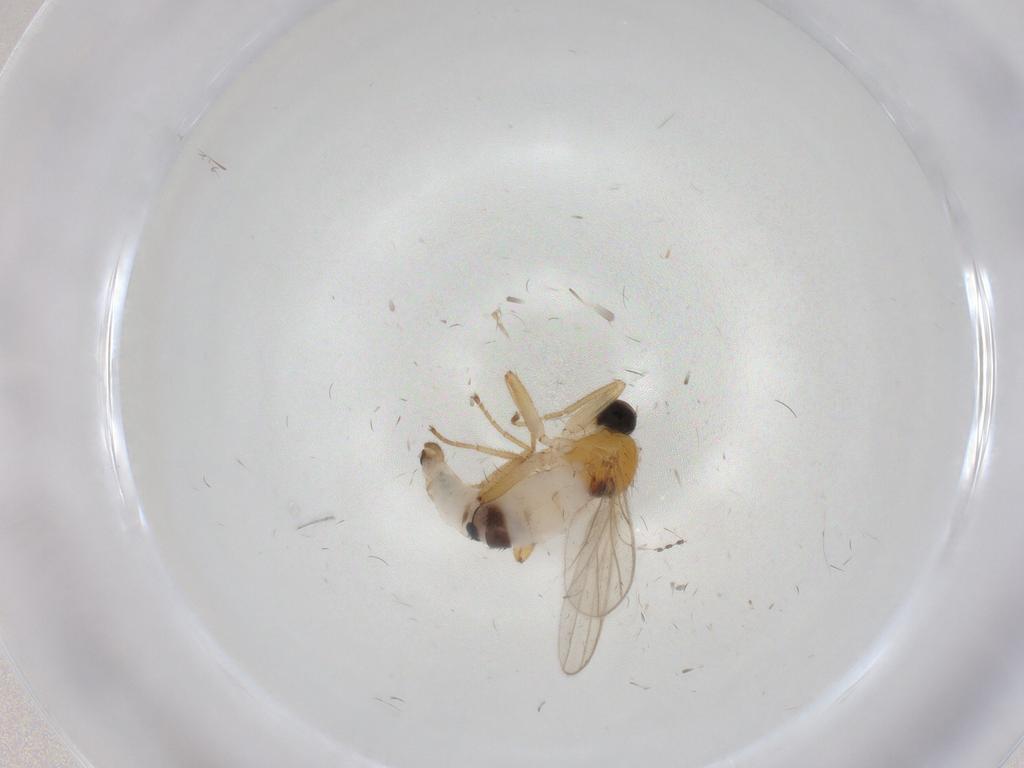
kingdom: Animalia
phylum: Arthropoda
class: Insecta
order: Diptera
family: Hybotidae
